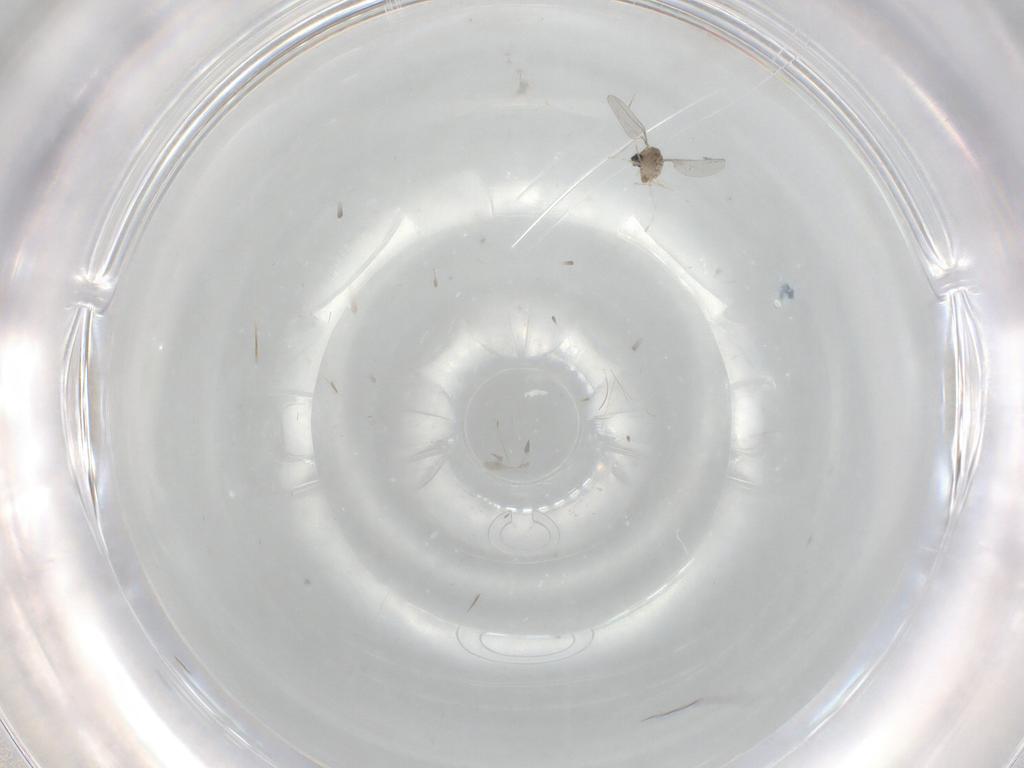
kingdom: Animalia
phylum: Arthropoda
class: Insecta
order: Diptera
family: Cecidomyiidae
